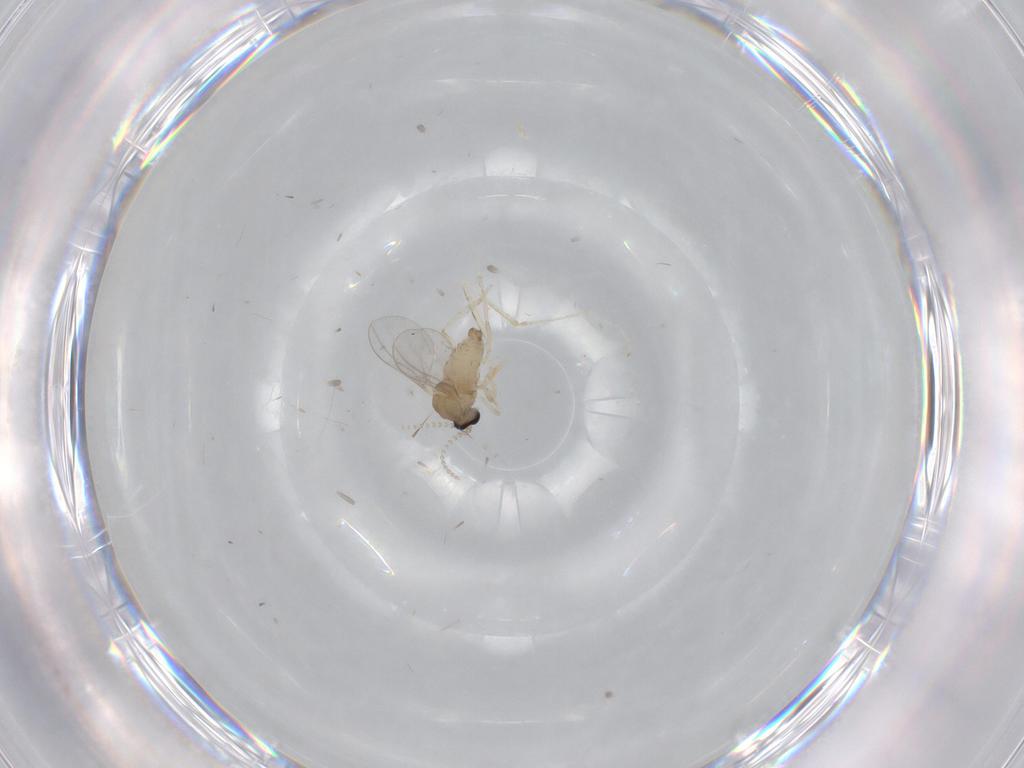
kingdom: Animalia
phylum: Arthropoda
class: Insecta
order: Diptera
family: Cecidomyiidae
